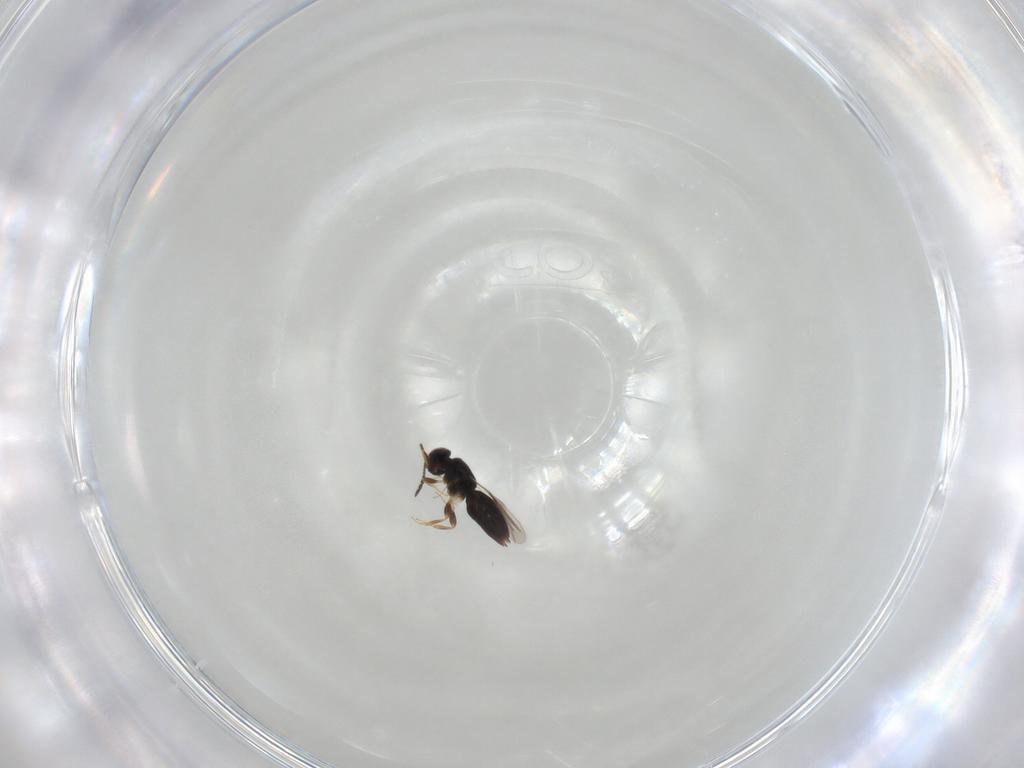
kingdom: Animalia
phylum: Arthropoda
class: Insecta
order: Hymenoptera
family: Ceraphronidae
